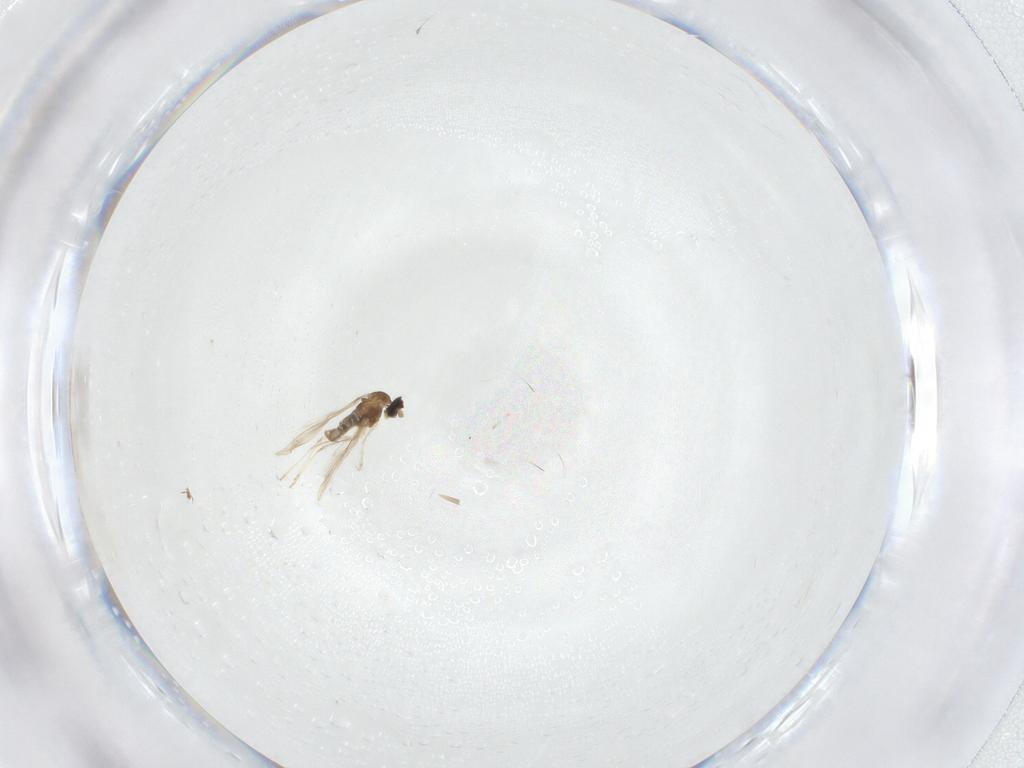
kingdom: Animalia
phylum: Arthropoda
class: Insecta
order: Diptera
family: Cecidomyiidae
